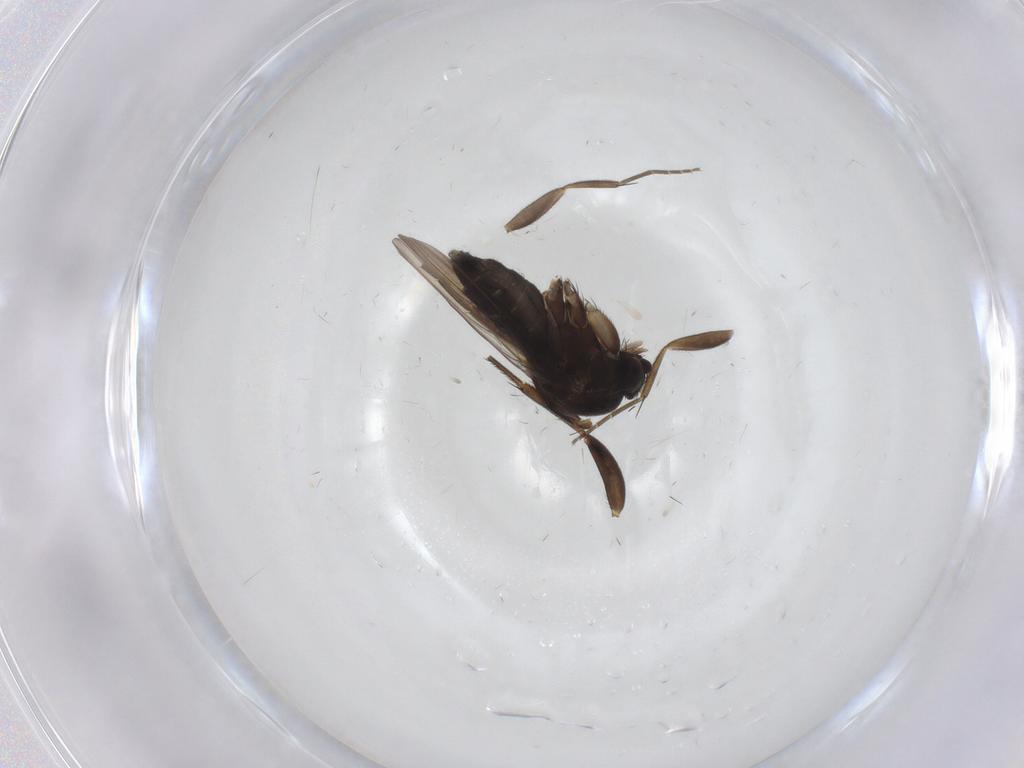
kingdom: Animalia
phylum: Arthropoda
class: Insecta
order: Diptera
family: Phoridae
